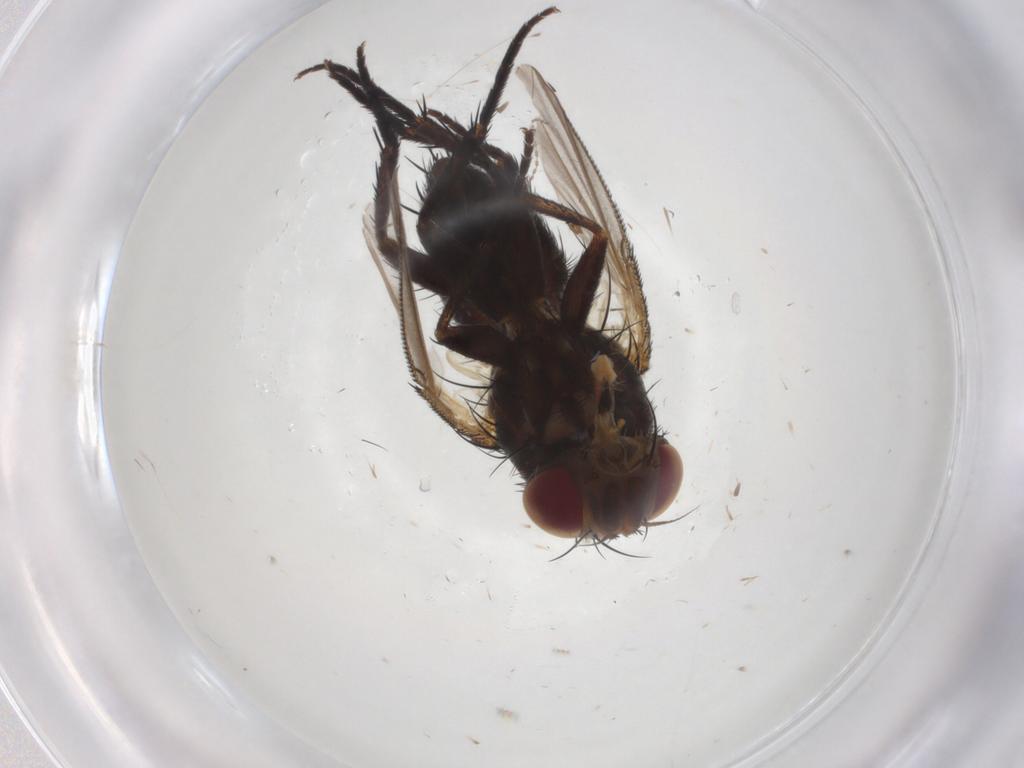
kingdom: Animalia
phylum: Arthropoda
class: Insecta
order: Diptera
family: Tachinidae
